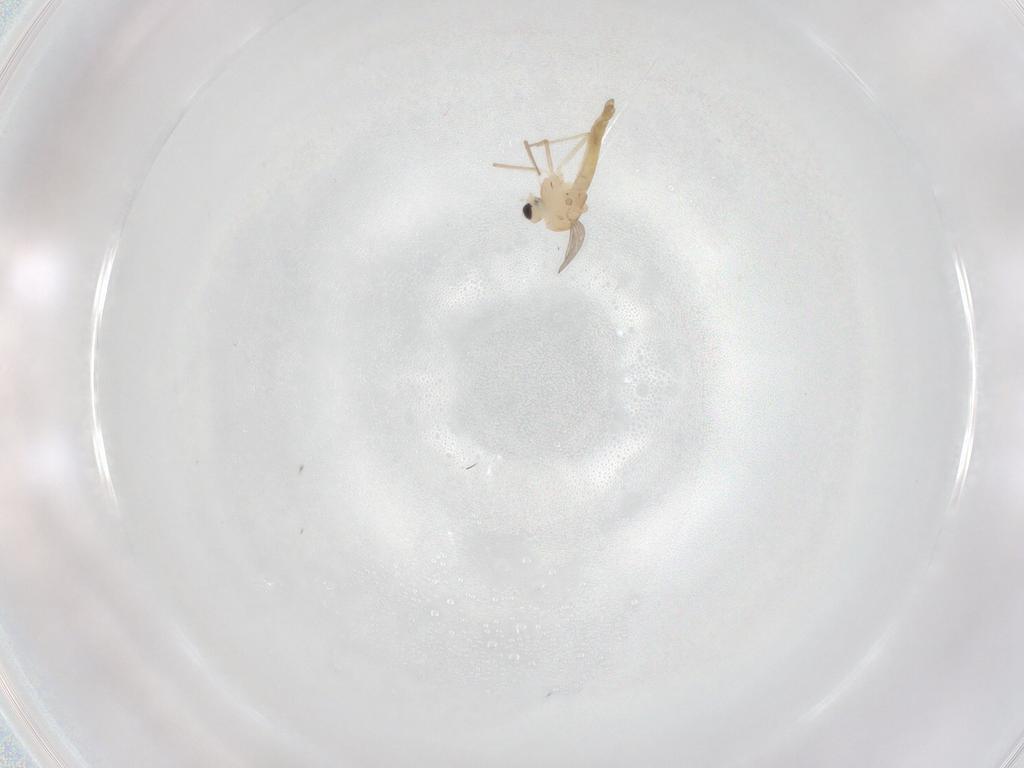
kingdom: Animalia
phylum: Arthropoda
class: Insecta
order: Diptera
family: Chironomidae
